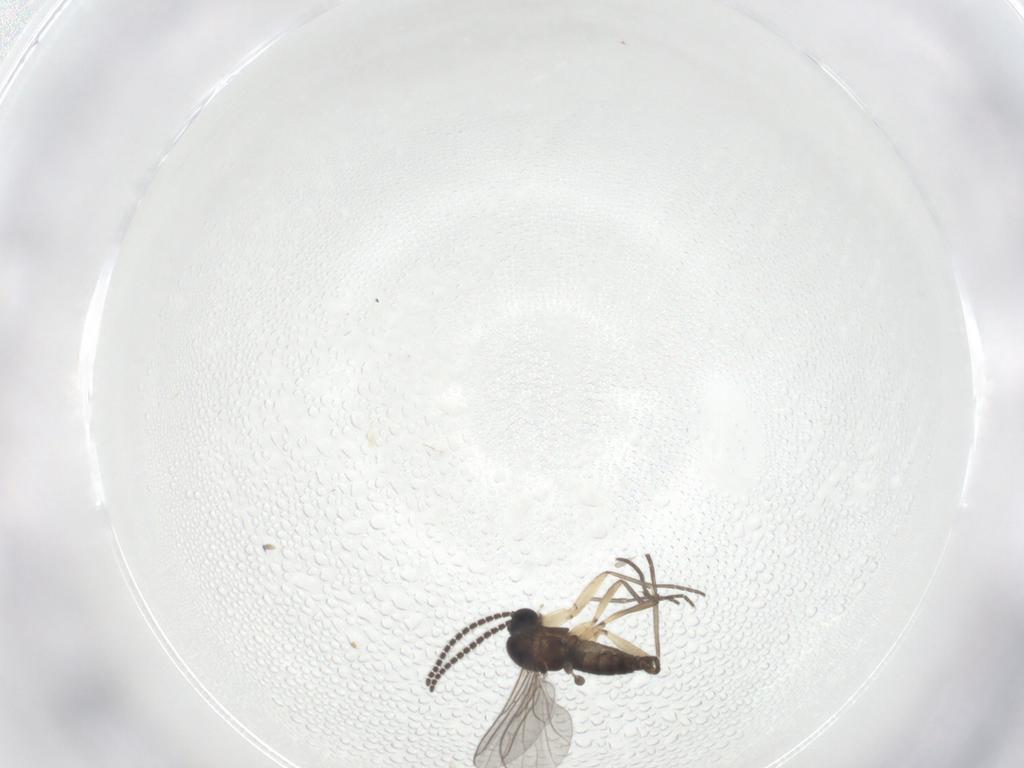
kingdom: Animalia
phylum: Arthropoda
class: Insecta
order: Diptera
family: Sciaridae
